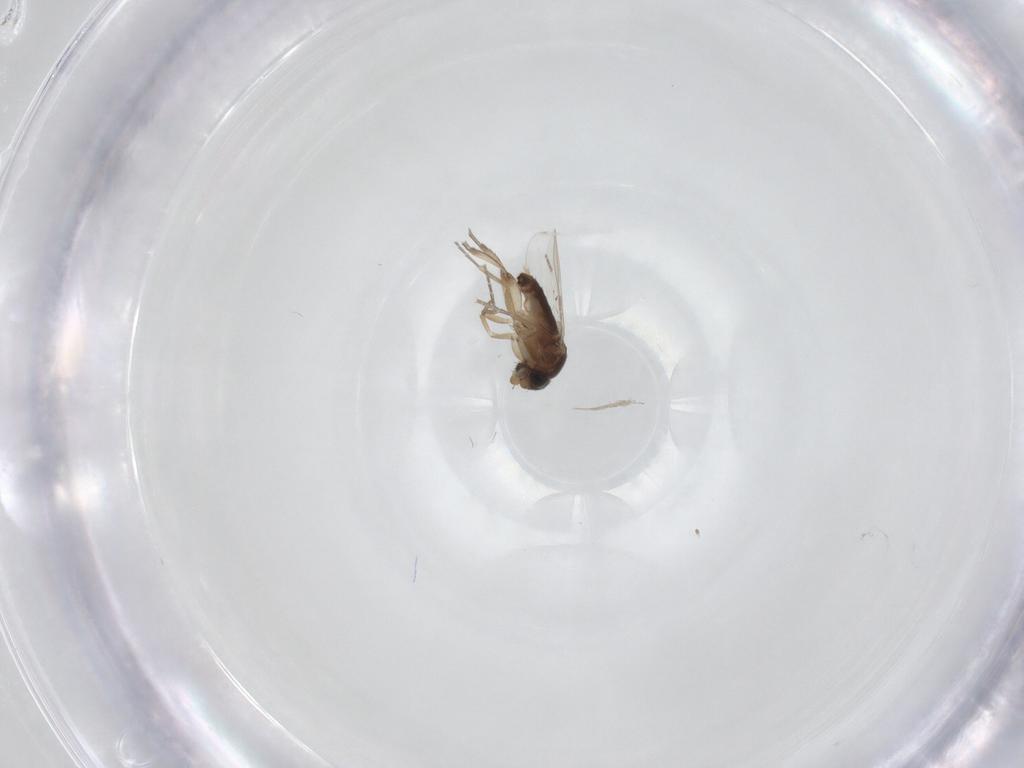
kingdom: Animalia
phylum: Arthropoda
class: Insecta
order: Diptera
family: Phoridae
